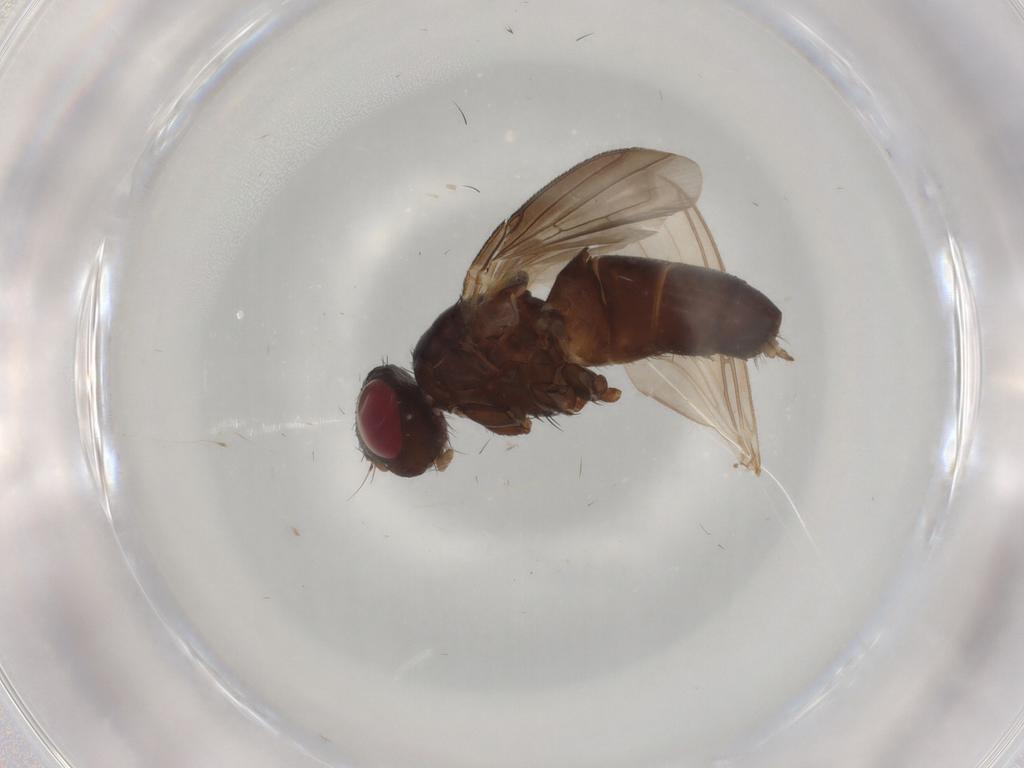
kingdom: Animalia
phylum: Arthropoda
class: Insecta
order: Diptera
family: Tachinidae
